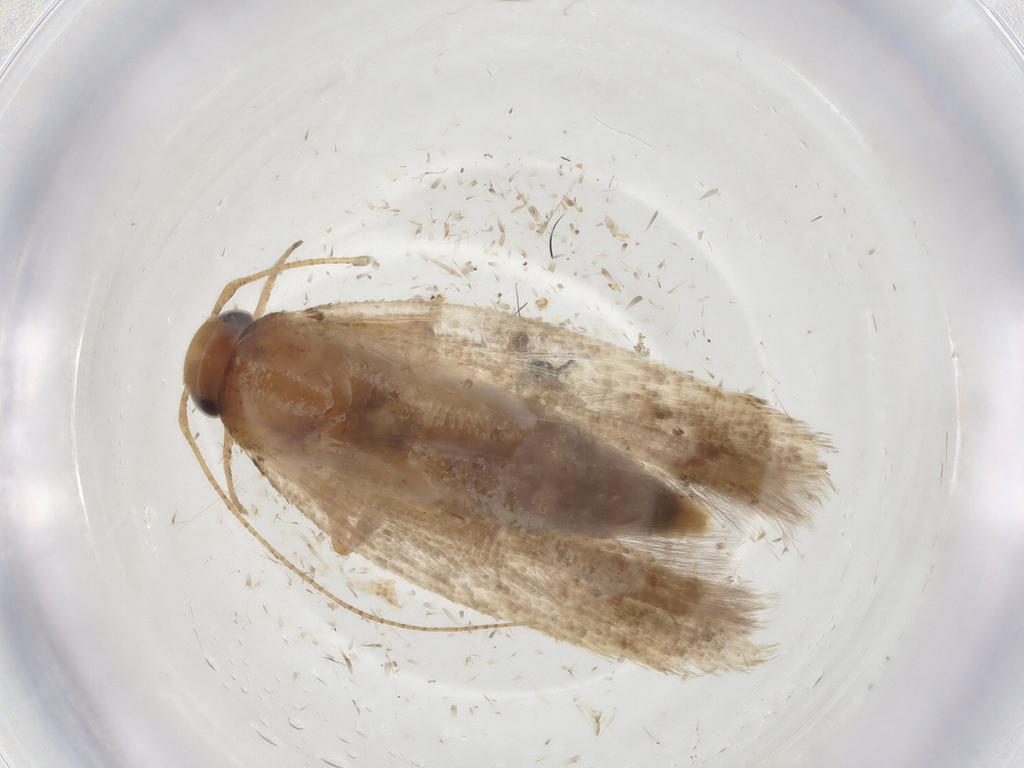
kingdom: Animalia
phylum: Arthropoda
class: Insecta
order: Lepidoptera
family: Gelechiidae
